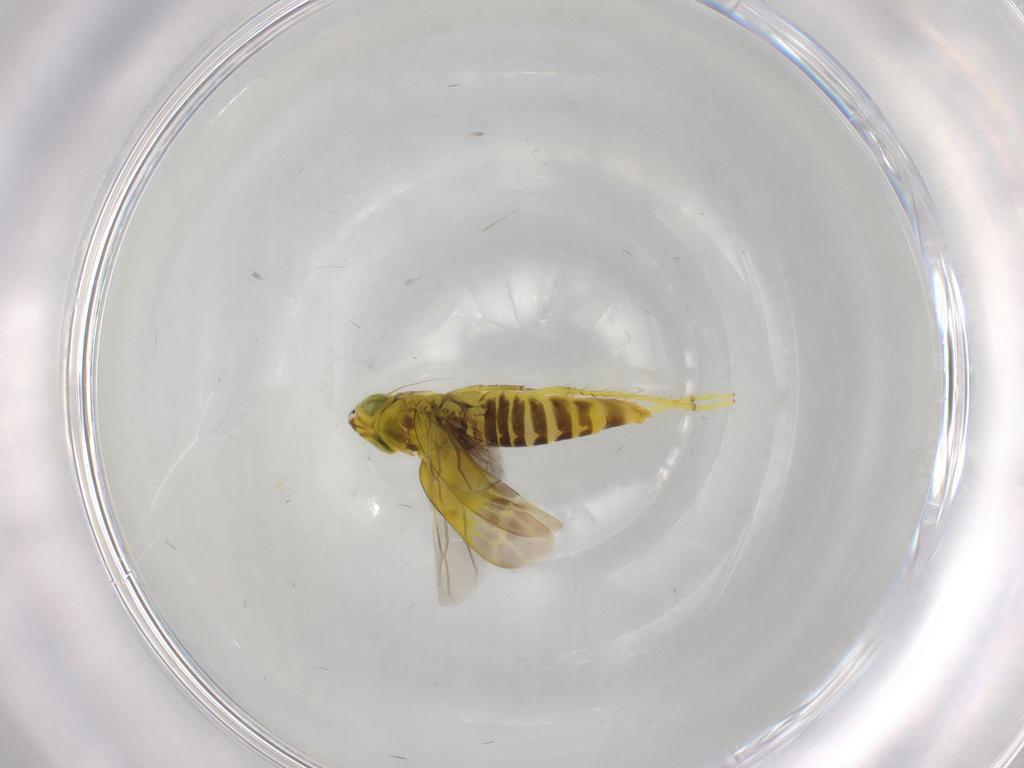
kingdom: Animalia
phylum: Arthropoda
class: Insecta
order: Hemiptera
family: Cicadellidae
